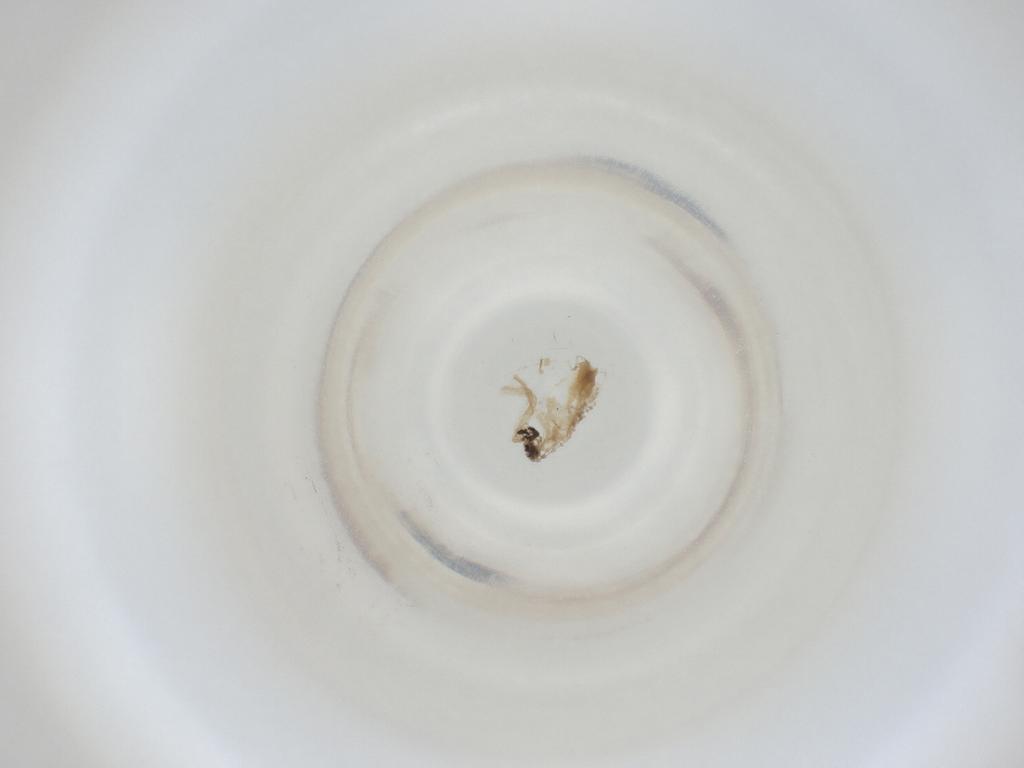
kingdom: Animalia
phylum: Arthropoda
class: Insecta
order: Diptera
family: Cecidomyiidae
